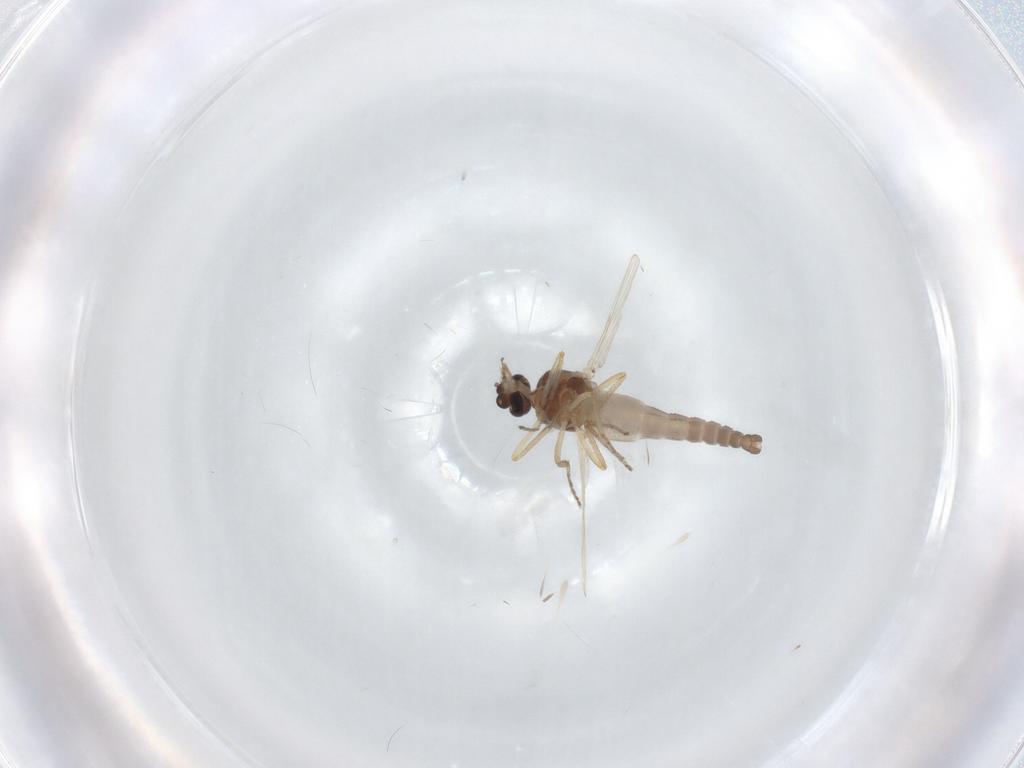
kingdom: Animalia
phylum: Arthropoda
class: Insecta
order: Diptera
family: Ceratopogonidae
